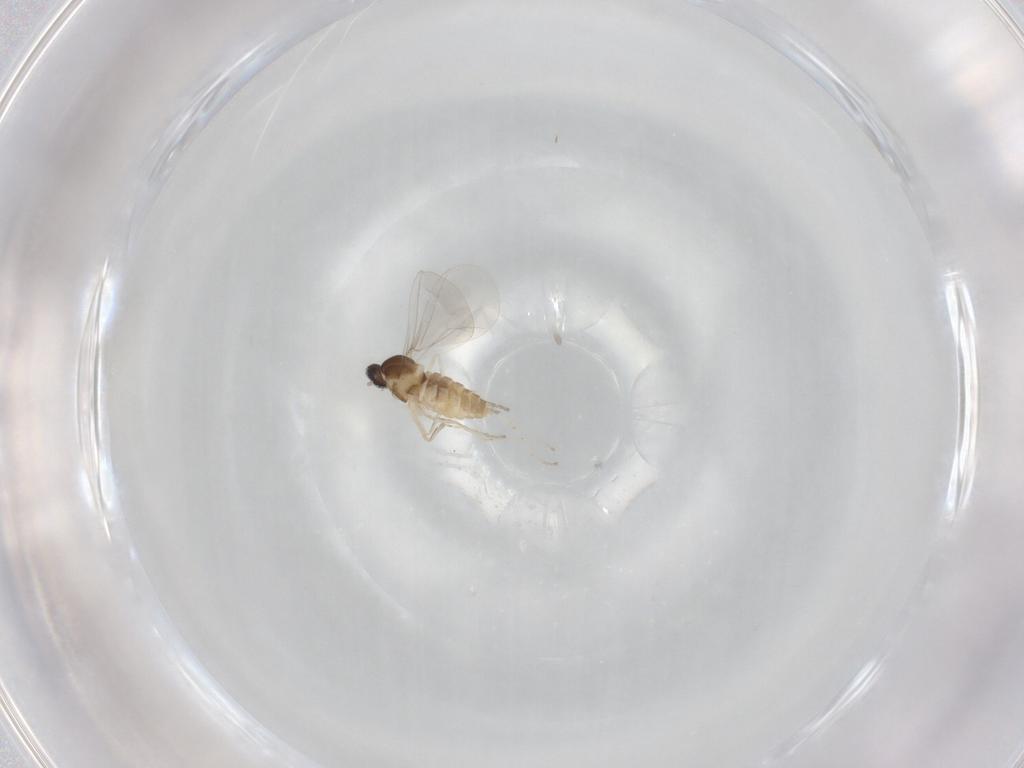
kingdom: Animalia
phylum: Arthropoda
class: Insecta
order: Diptera
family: Cecidomyiidae
